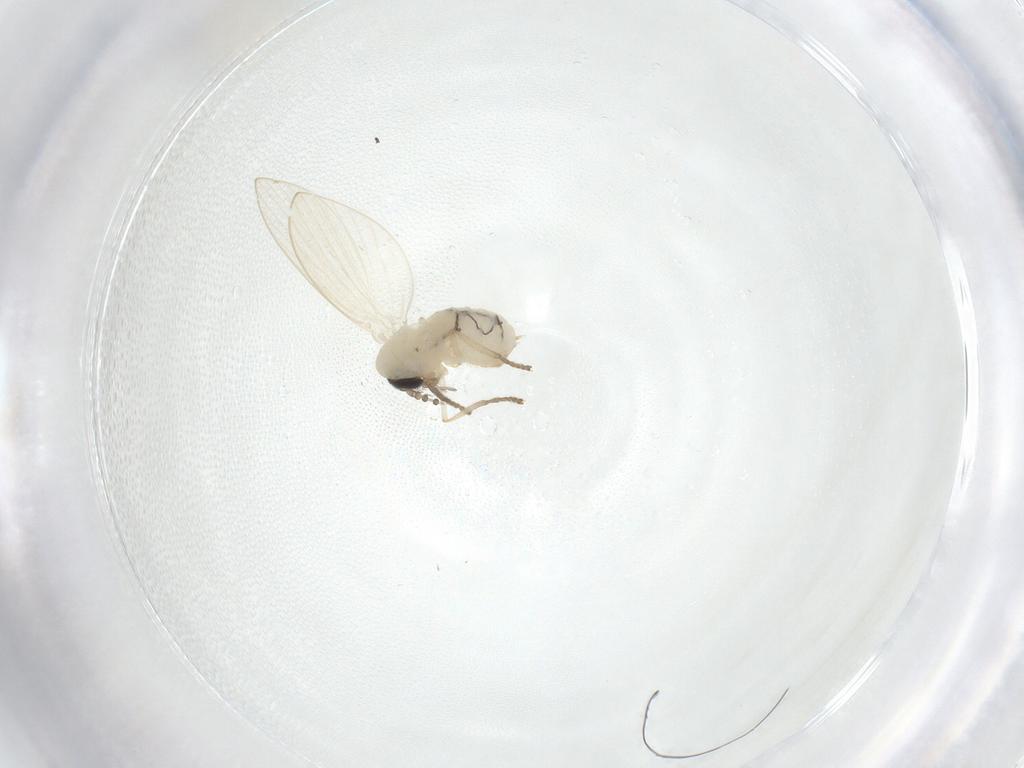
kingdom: Animalia
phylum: Arthropoda
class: Insecta
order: Diptera
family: Psychodidae
